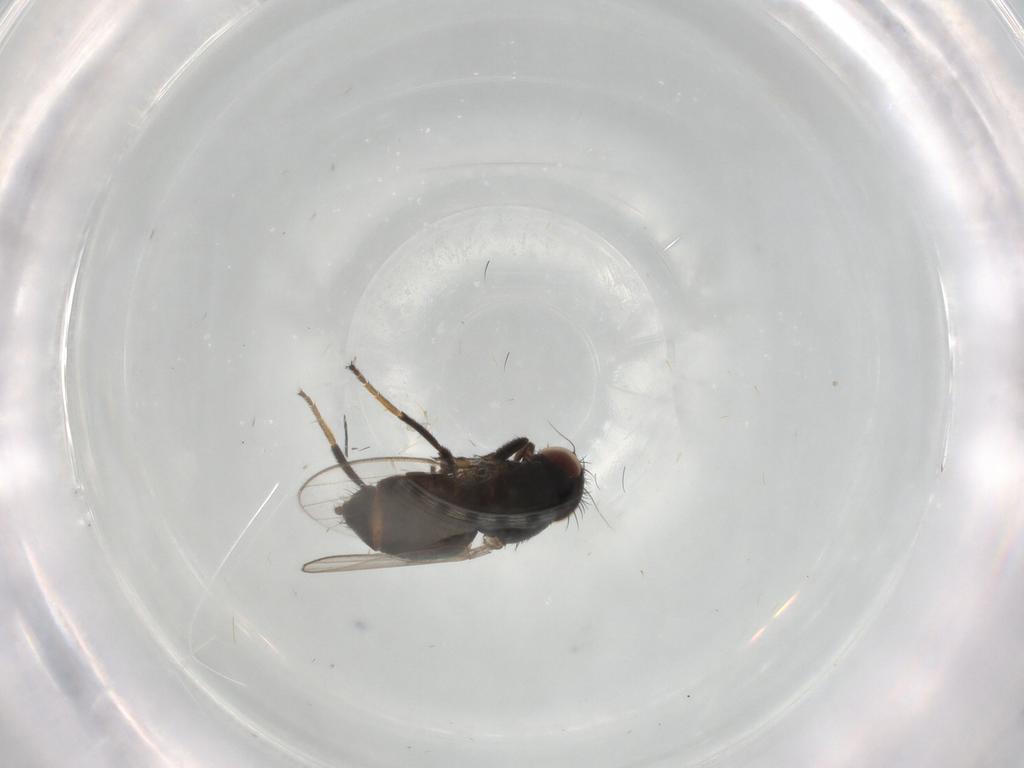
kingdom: Animalia
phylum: Arthropoda
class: Insecta
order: Diptera
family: Milichiidae
